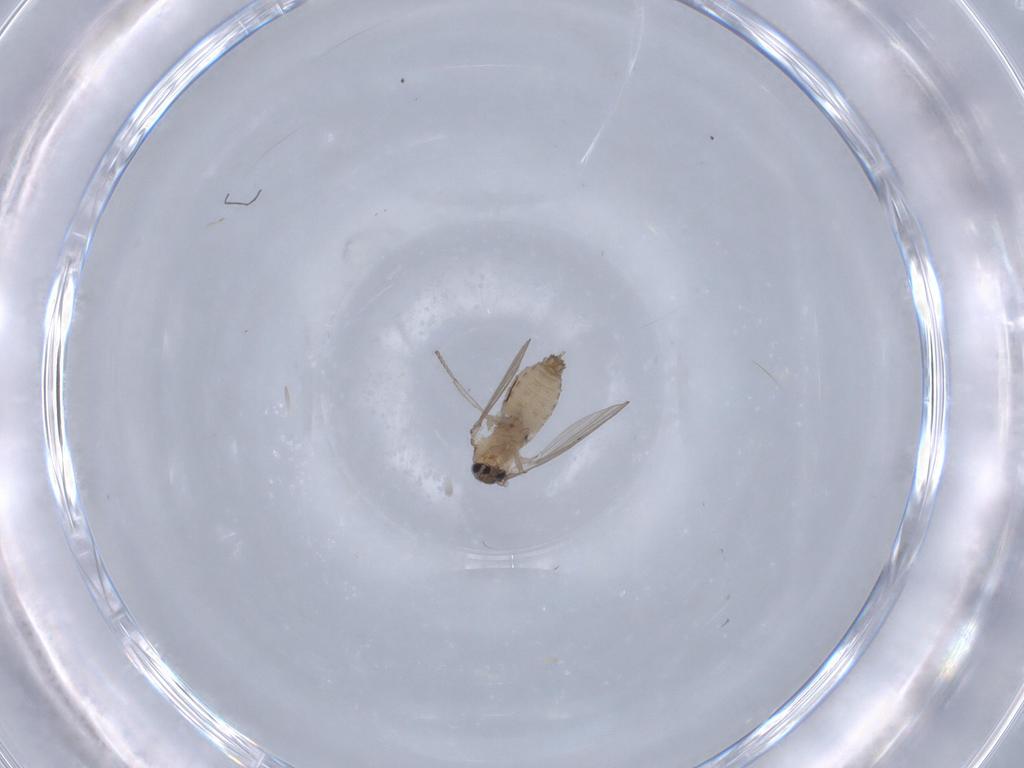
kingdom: Animalia
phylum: Arthropoda
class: Insecta
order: Diptera
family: Psychodidae
